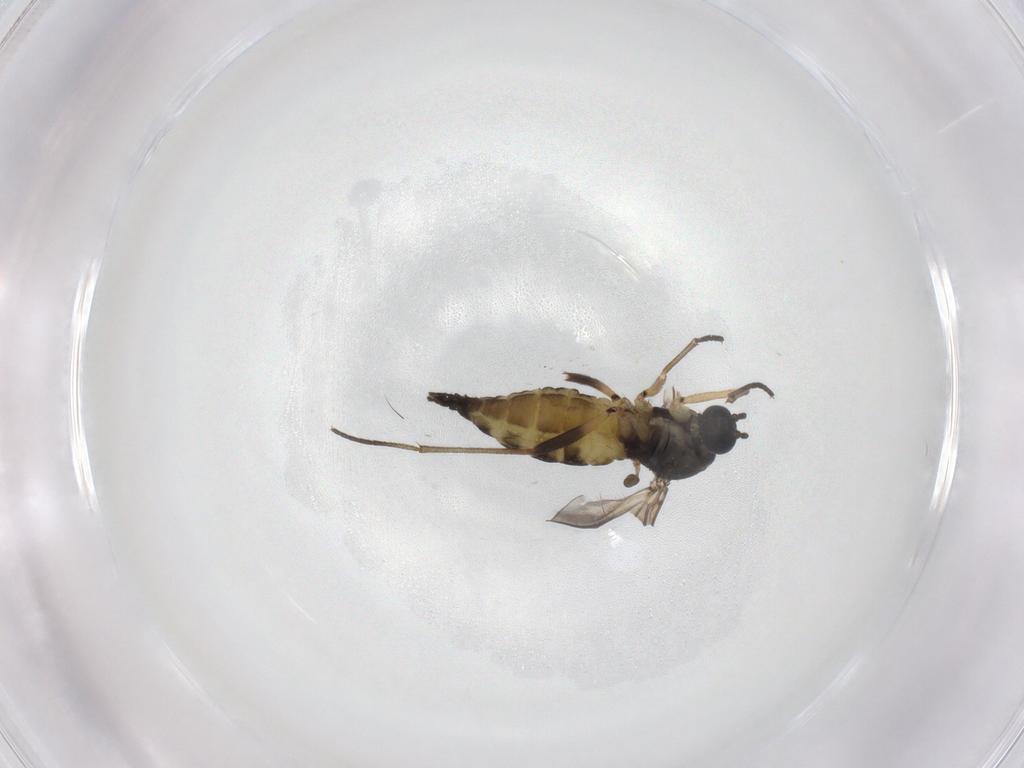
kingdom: Animalia
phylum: Arthropoda
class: Insecta
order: Diptera
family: Sciaridae
